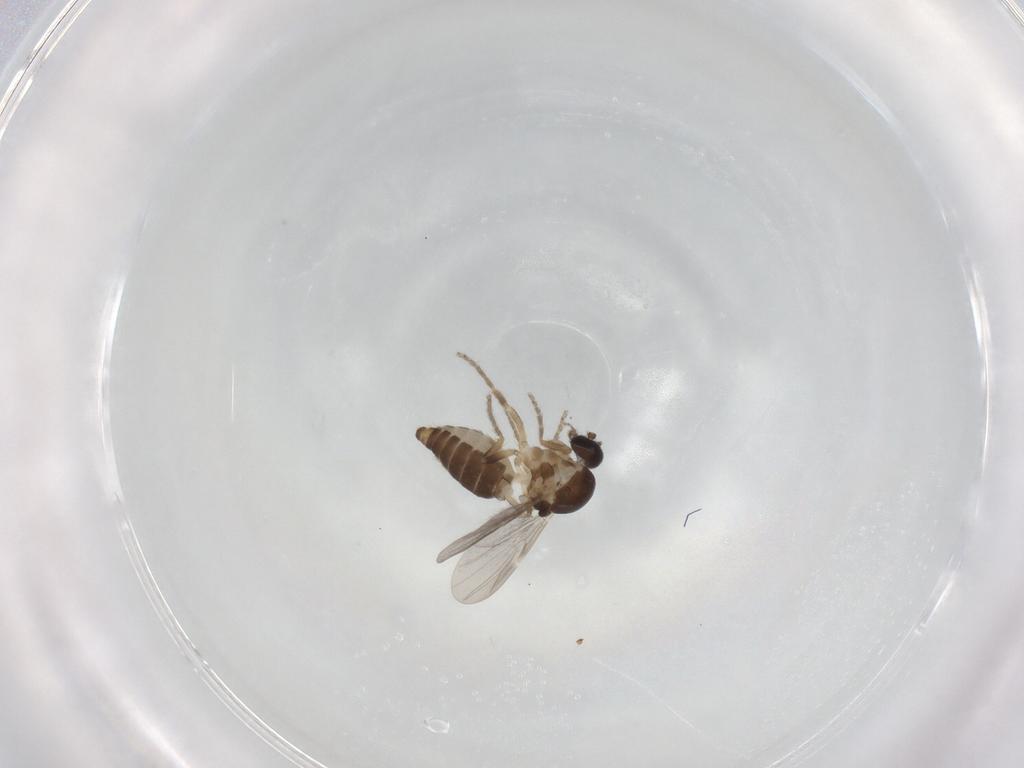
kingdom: Animalia
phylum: Arthropoda
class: Insecta
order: Diptera
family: Ceratopogonidae
